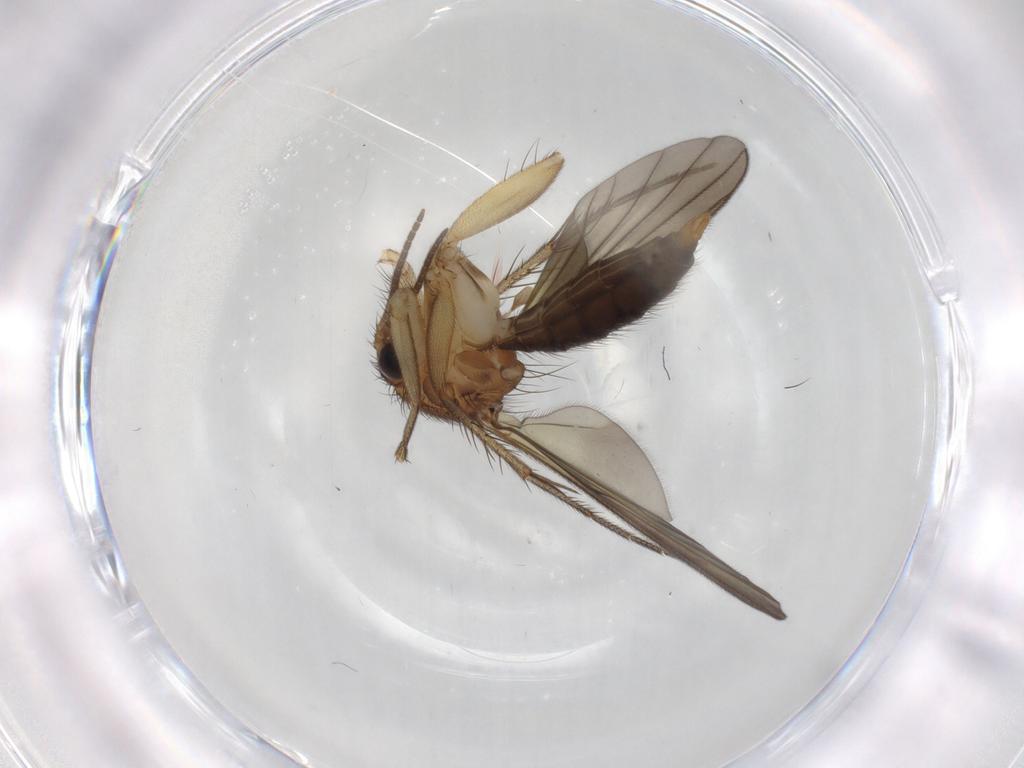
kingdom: Animalia
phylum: Arthropoda
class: Insecta
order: Diptera
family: Mycetophilidae
